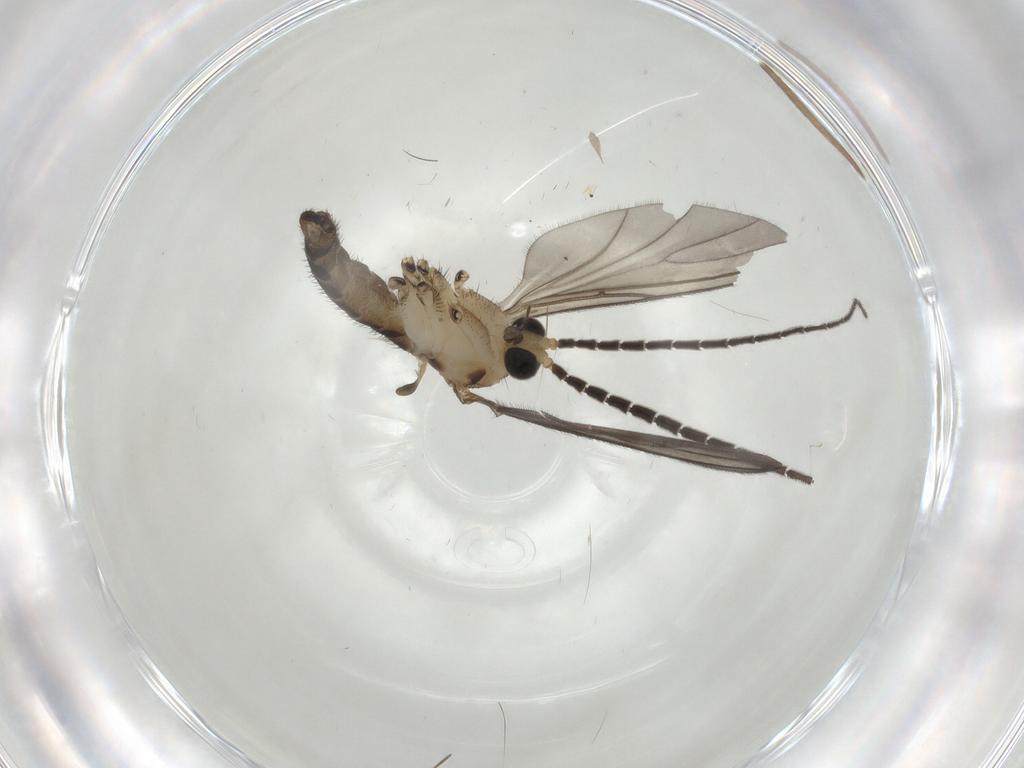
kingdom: Animalia
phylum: Arthropoda
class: Insecta
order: Diptera
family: Sciaridae
